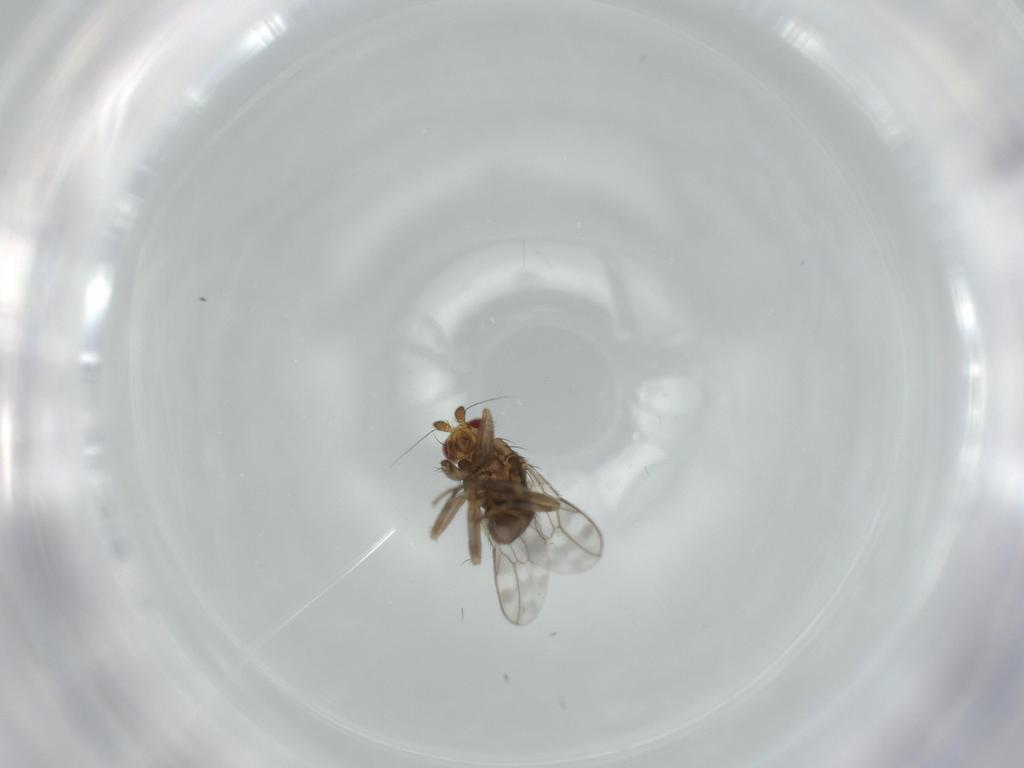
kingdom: Animalia
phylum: Arthropoda
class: Insecta
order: Diptera
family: Sphaeroceridae
